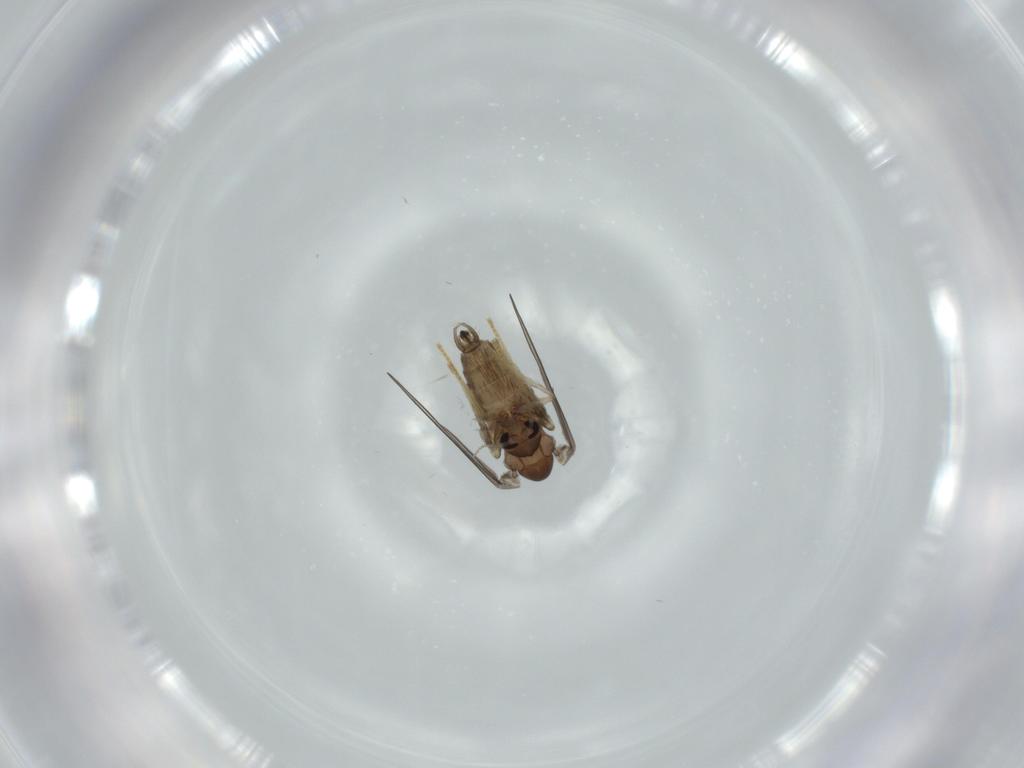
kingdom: Animalia
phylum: Arthropoda
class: Insecta
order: Diptera
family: Psychodidae
